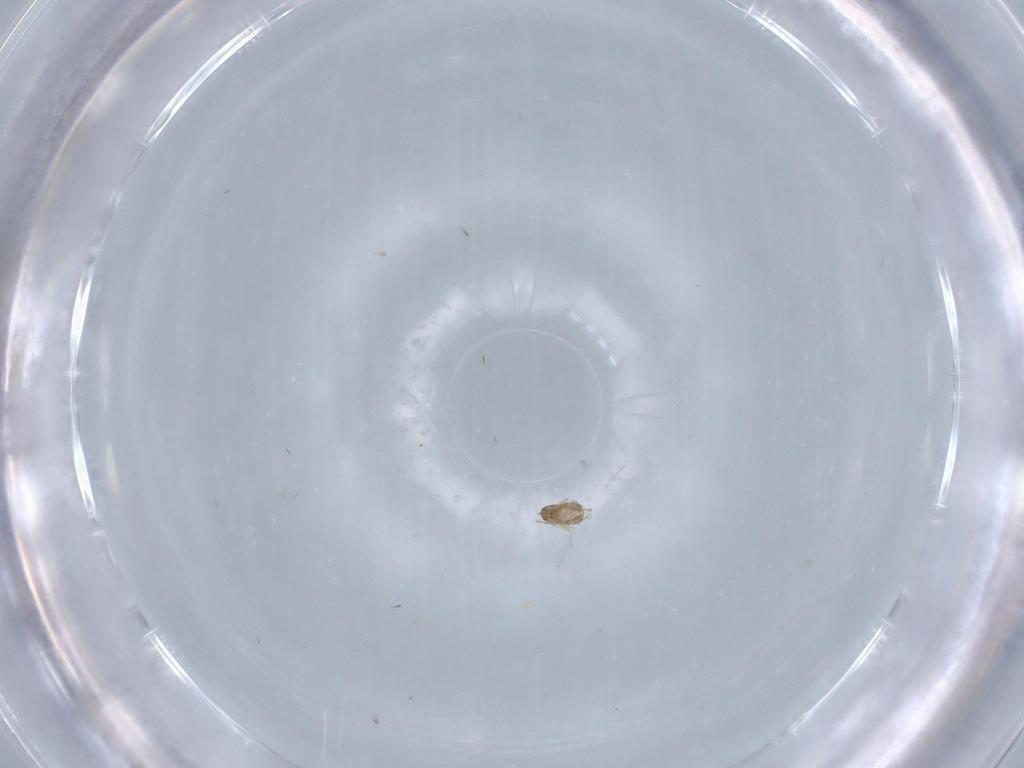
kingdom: Animalia
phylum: Arthropoda
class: Insecta
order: Hymenoptera
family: Trichogrammatidae
